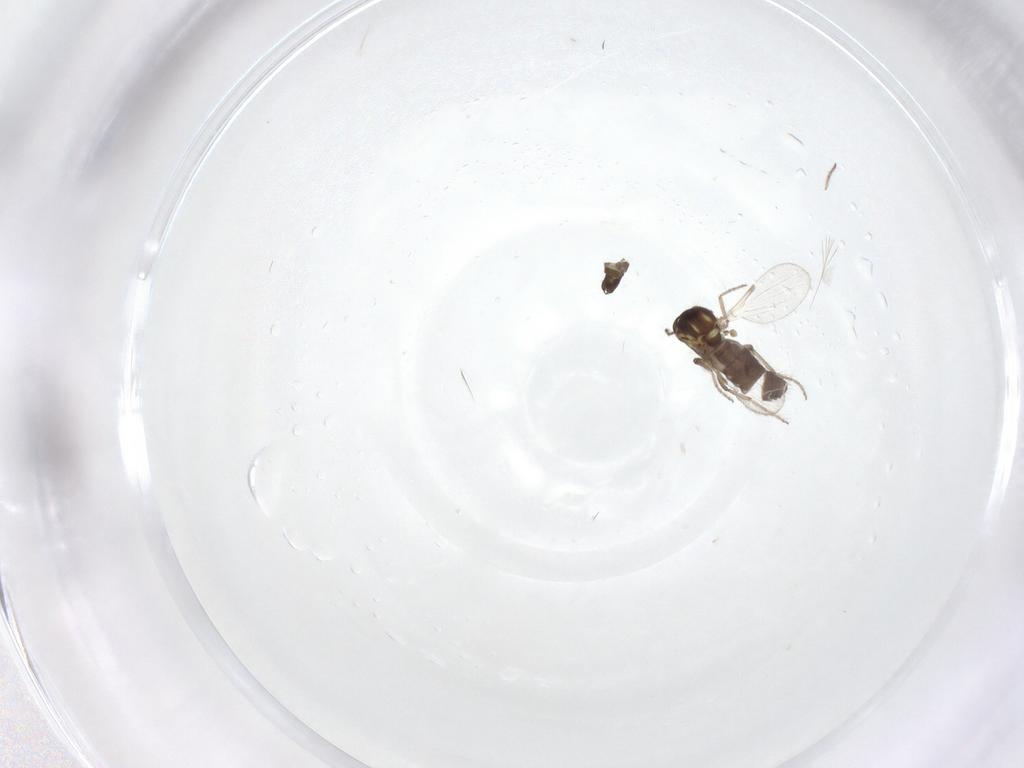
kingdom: Animalia
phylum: Arthropoda
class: Insecta
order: Diptera
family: Ceratopogonidae
